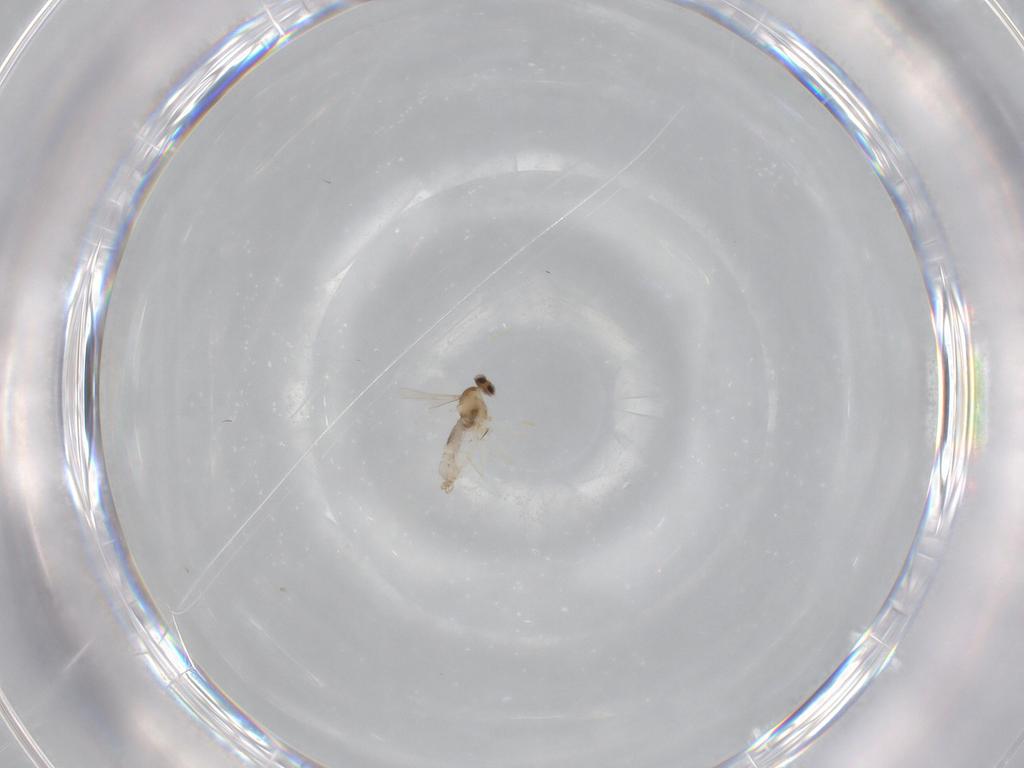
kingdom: Animalia
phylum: Arthropoda
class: Insecta
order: Diptera
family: Cecidomyiidae
